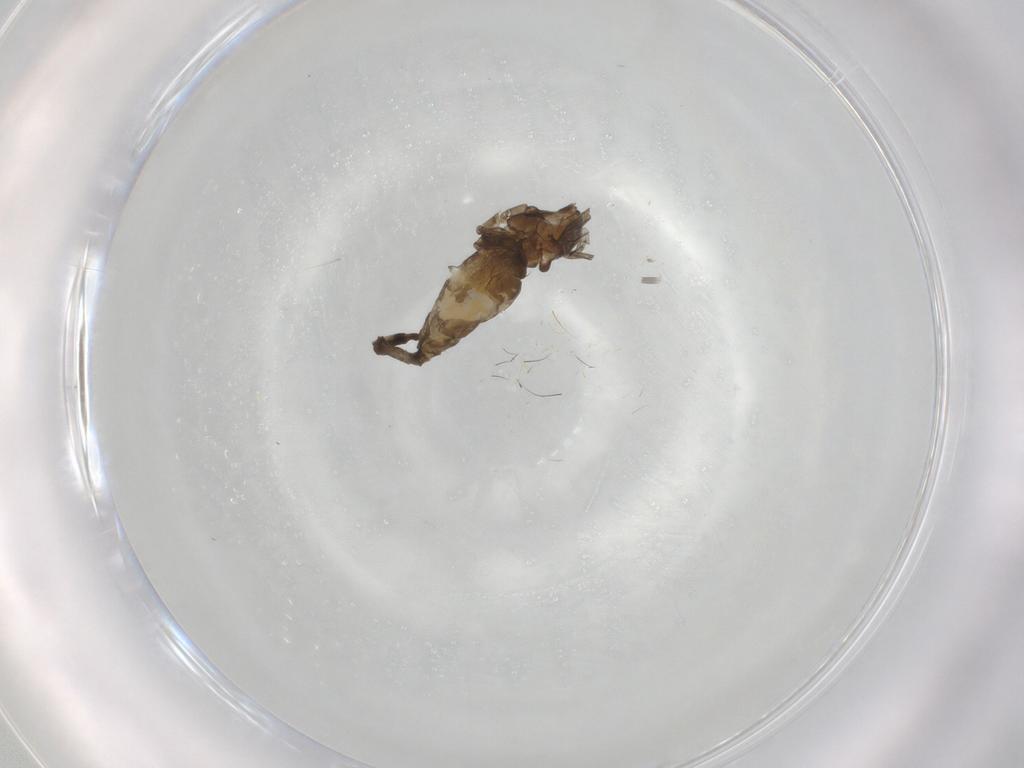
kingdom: Animalia
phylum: Arthropoda
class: Insecta
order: Diptera
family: Cecidomyiidae
